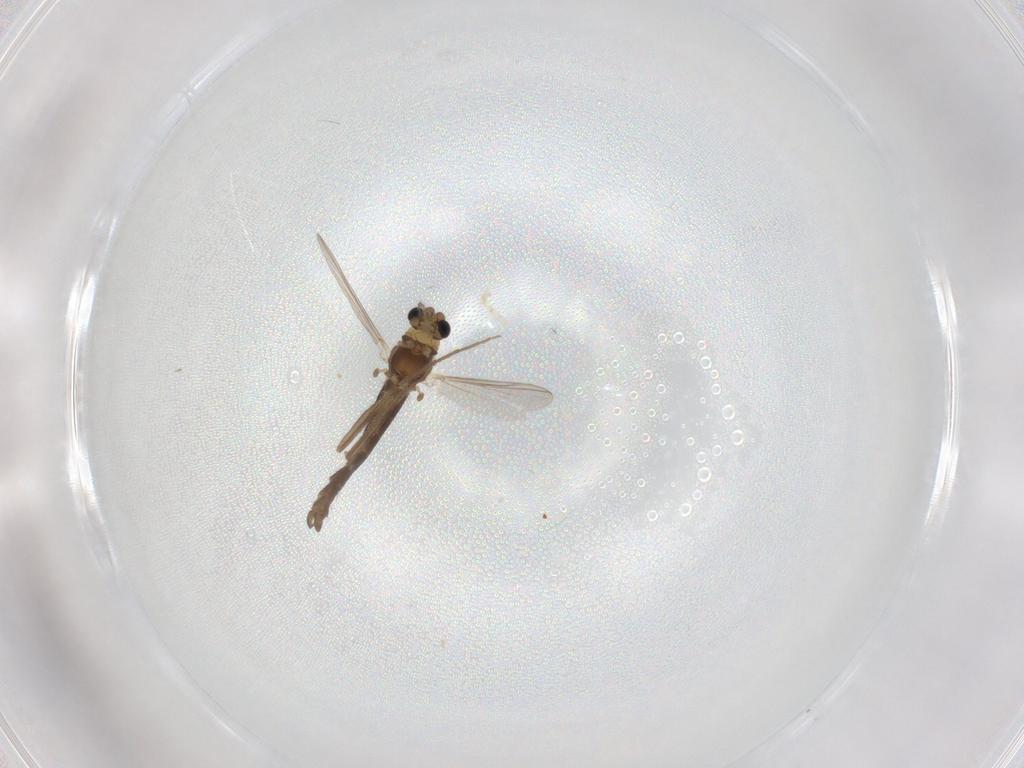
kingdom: Animalia
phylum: Arthropoda
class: Insecta
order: Diptera
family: Chironomidae
